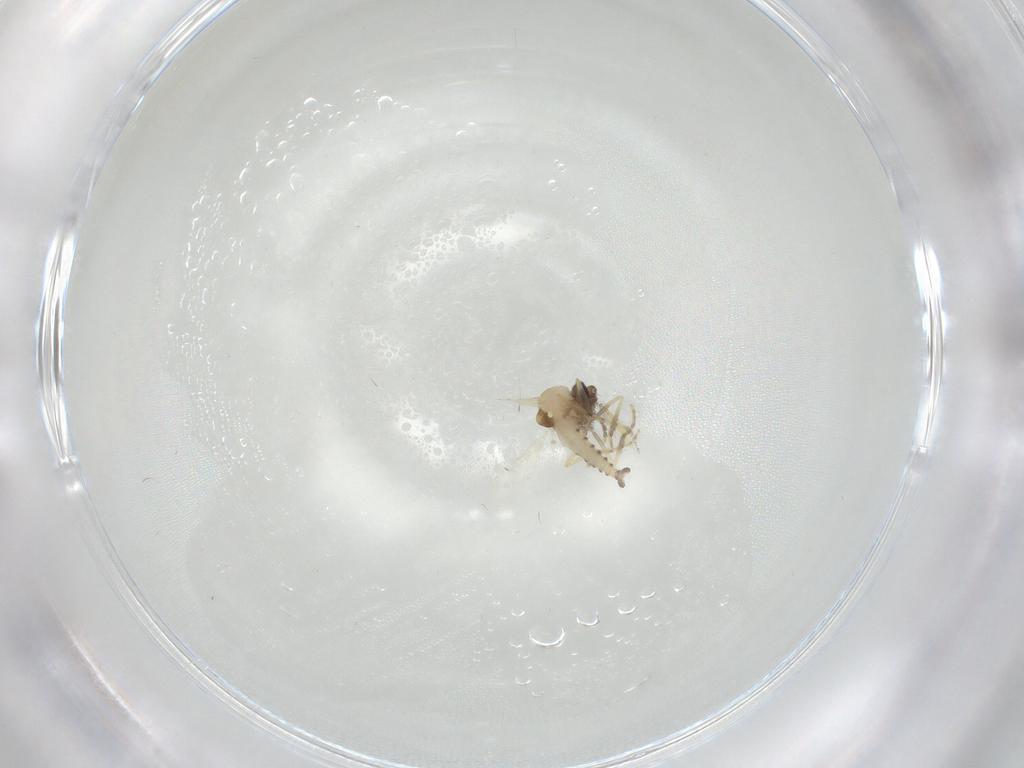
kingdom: Animalia
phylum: Arthropoda
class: Insecta
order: Diptera
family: Ceratopogonidae
